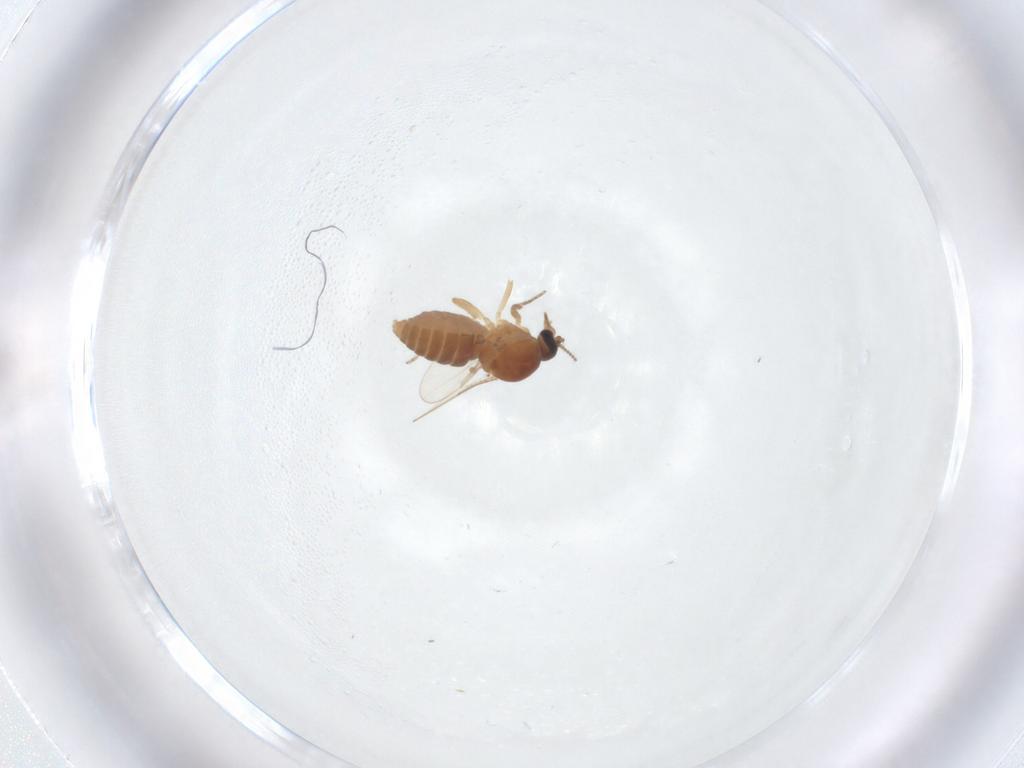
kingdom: Animalia
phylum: Arthropoda
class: Insecta
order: Diptera
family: Ceratopogonidae
